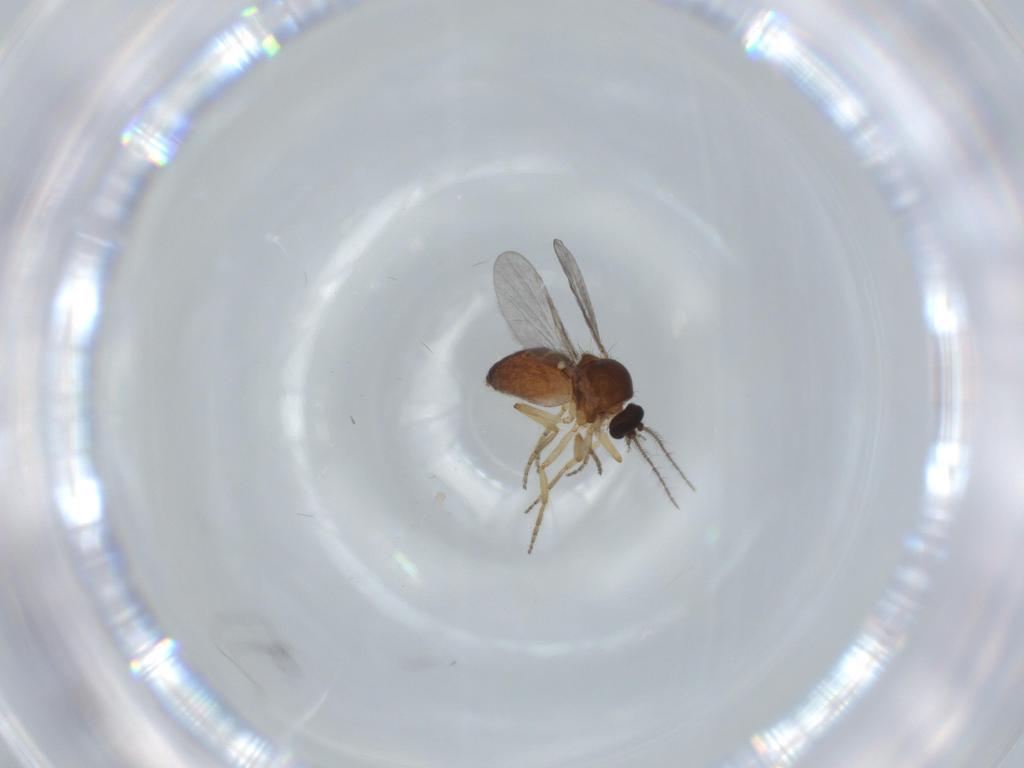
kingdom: Animalia
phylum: Arthropoda
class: Insecta
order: Diptera
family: Ceratopogonidae
